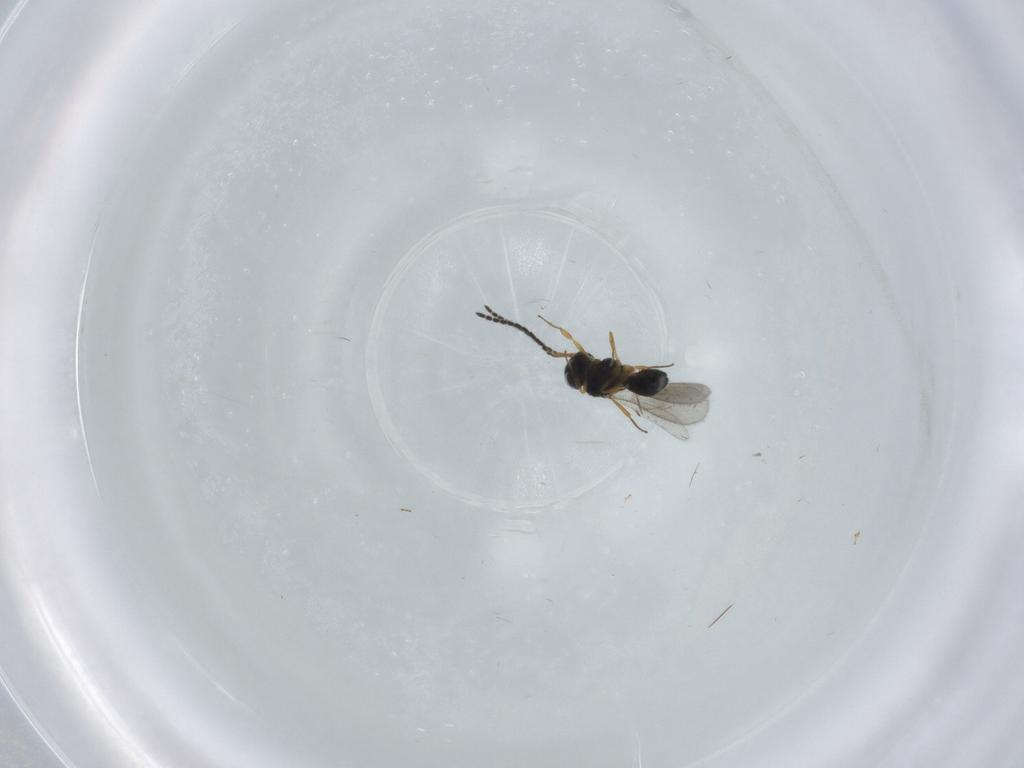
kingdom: Animalia
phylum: Arthropoda
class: Insecta
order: Hymenoptera
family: Scelionidae
